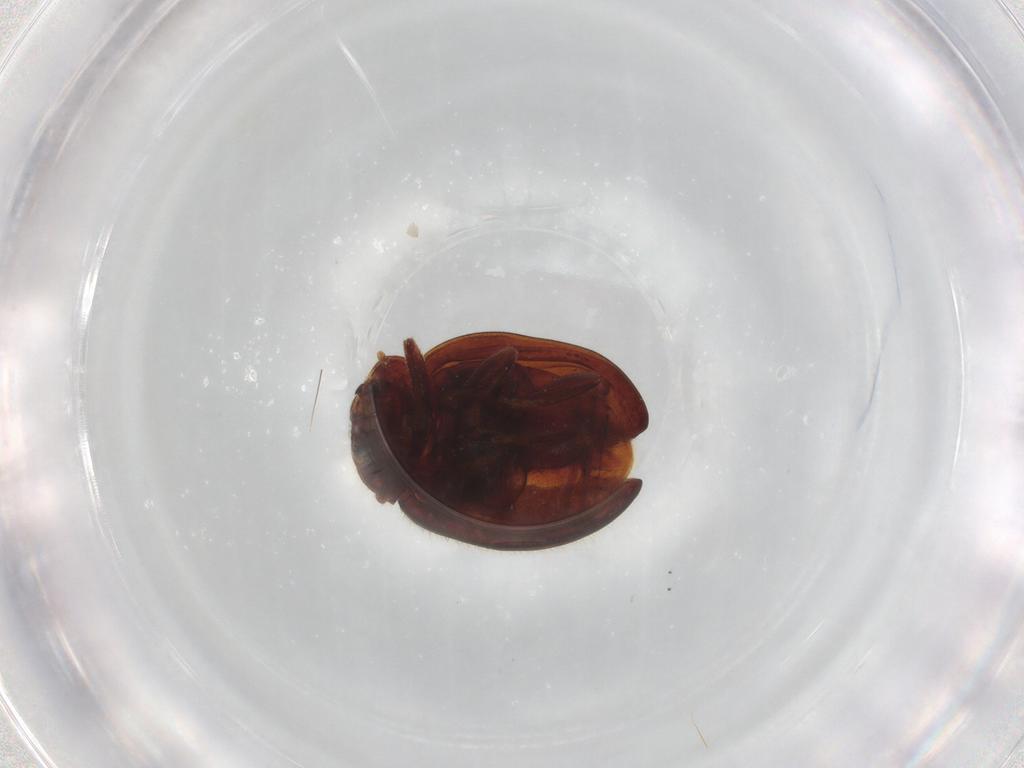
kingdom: Animalia
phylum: Arthropoda
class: Insecta
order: Coleoptera
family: Coccinellidae
